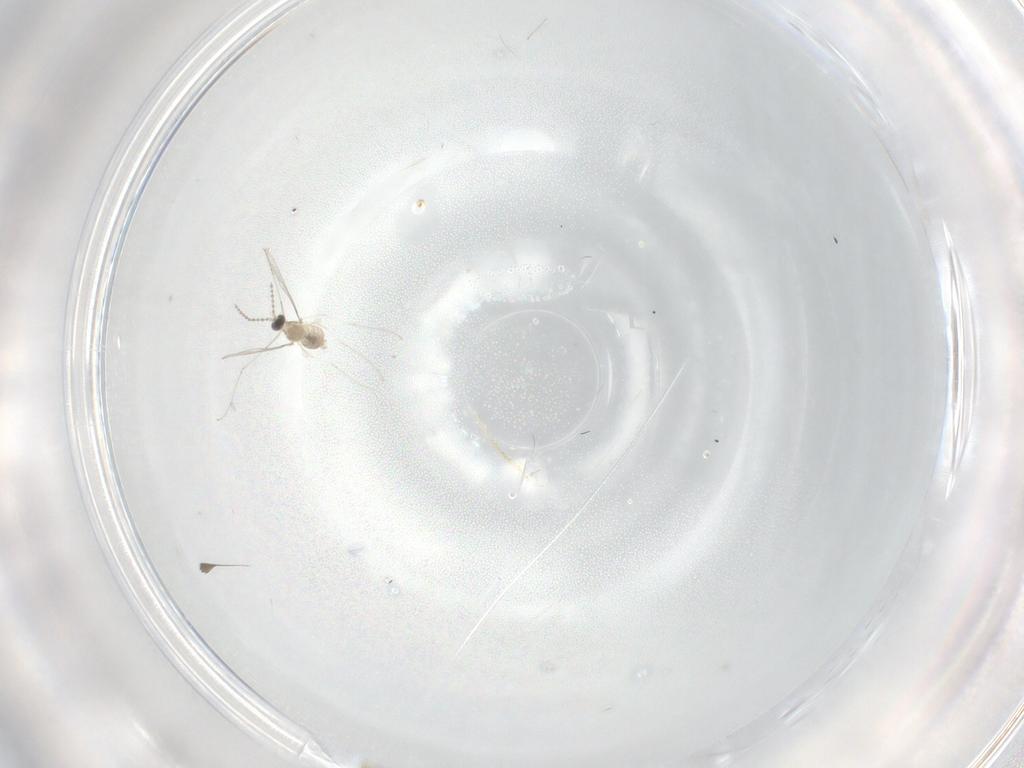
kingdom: Animalia
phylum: Arthropoda
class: Insecta
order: Diptera
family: Cecidomyiidae
